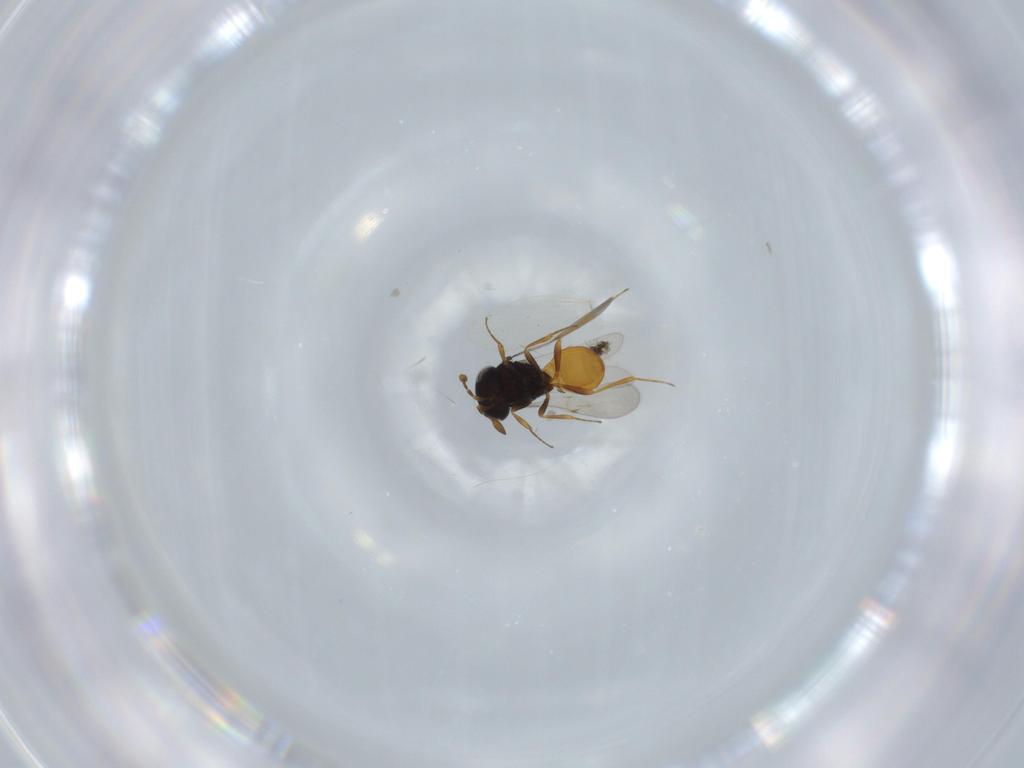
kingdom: Animalia
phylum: Arthropoda
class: Insecta
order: Hymenoptera
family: Scelionidae
